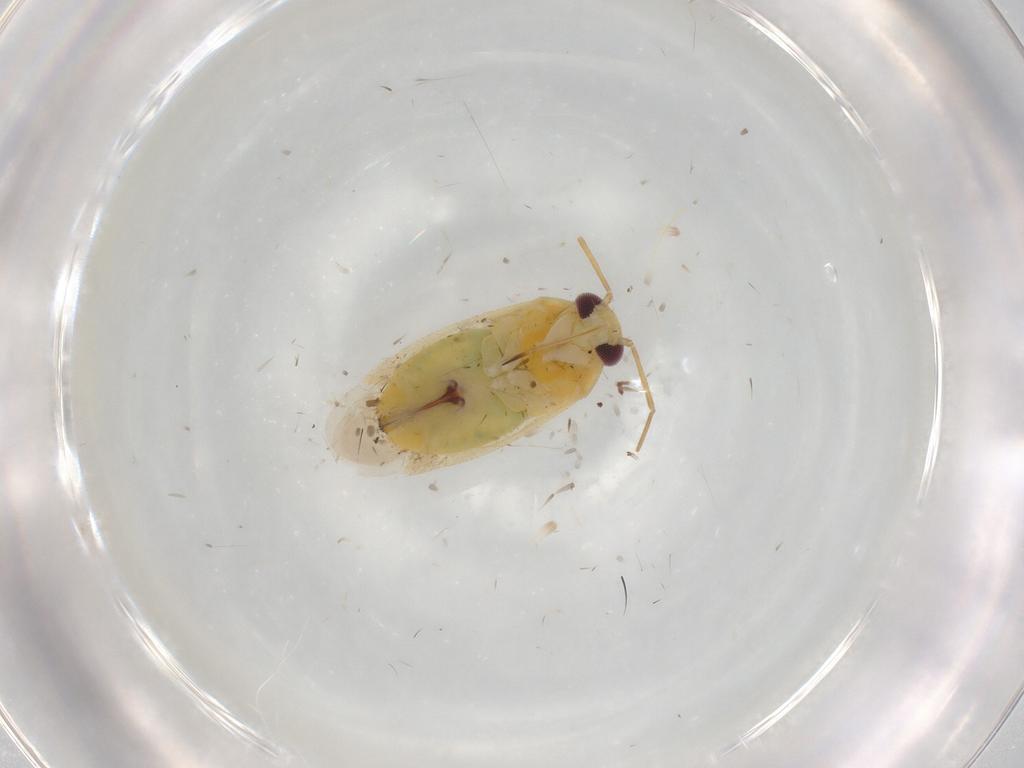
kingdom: Animalia
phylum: Arthropoda
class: Insecta
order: Hemiptera
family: Miridae
